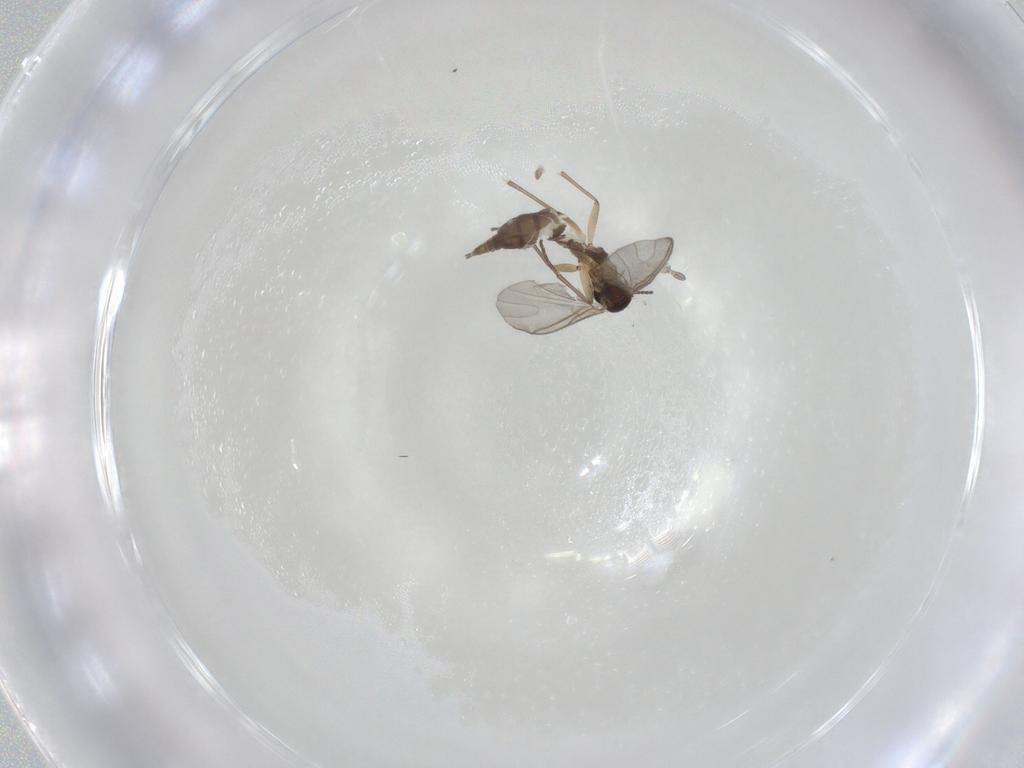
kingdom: Animalia
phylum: Arthropoda
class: Insecta
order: Diptera
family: Sciaridae
